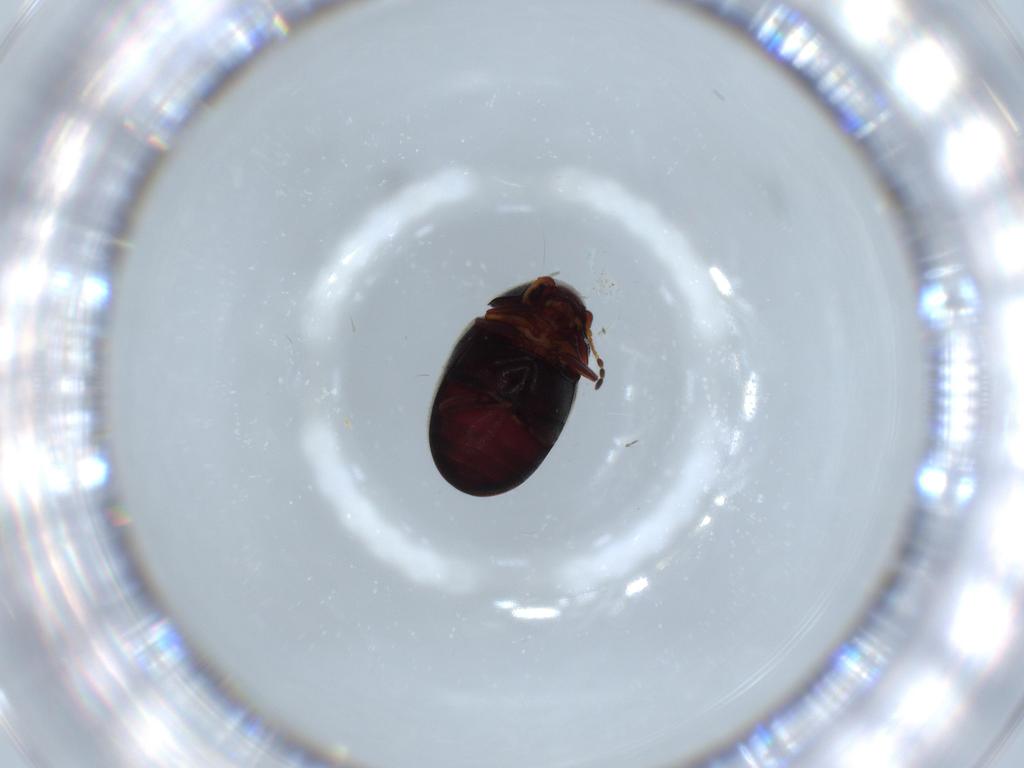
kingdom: Animalia
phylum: Arthropoda
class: Insecta
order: Coleoptera
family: Ptinidae
